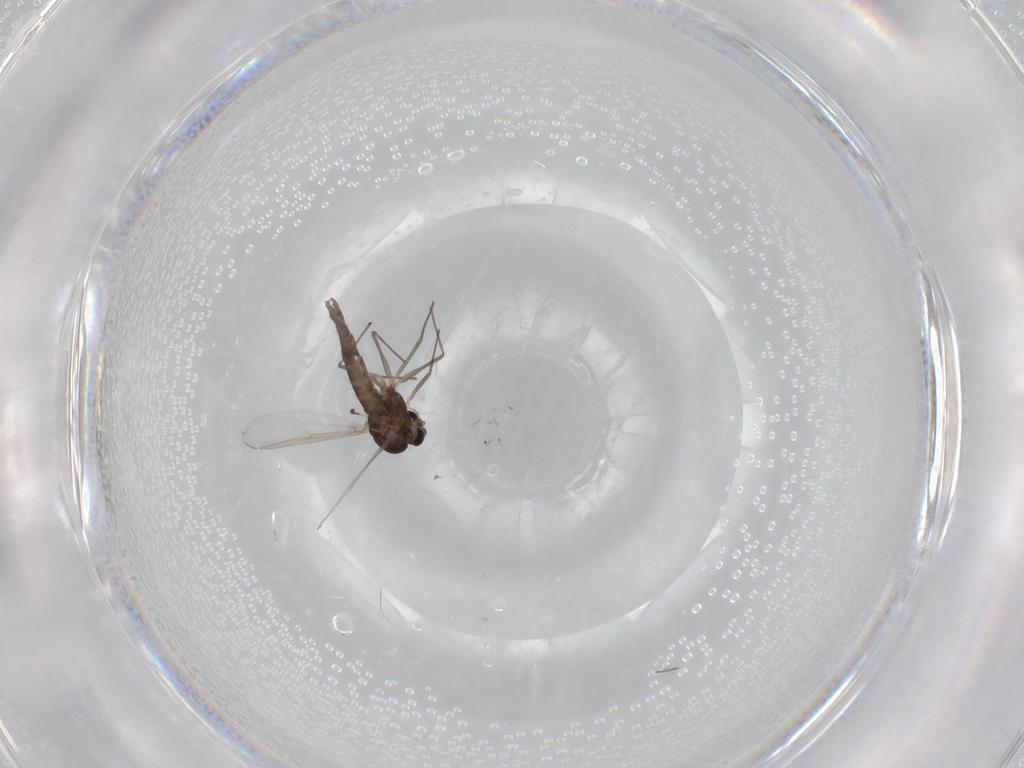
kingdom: Animalia
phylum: Arthropoda
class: Insecta
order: Diptera
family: Chironomidae
